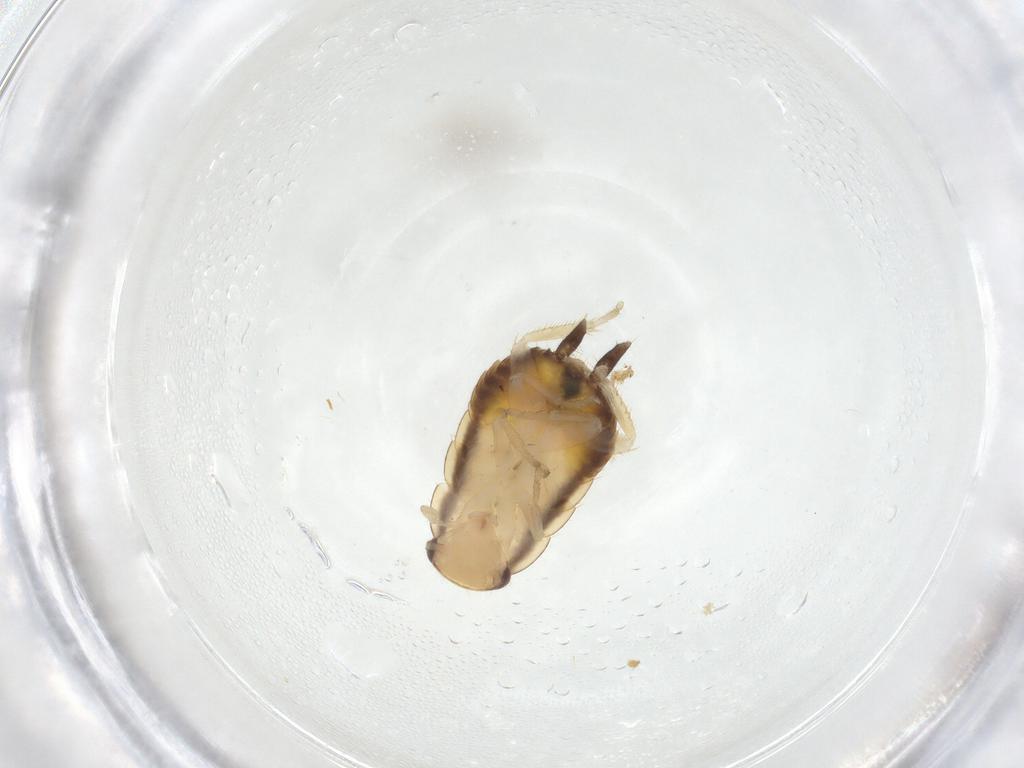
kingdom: Animalia
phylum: Arthropoda
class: Insecta
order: Blattodea
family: Ectobiidae
